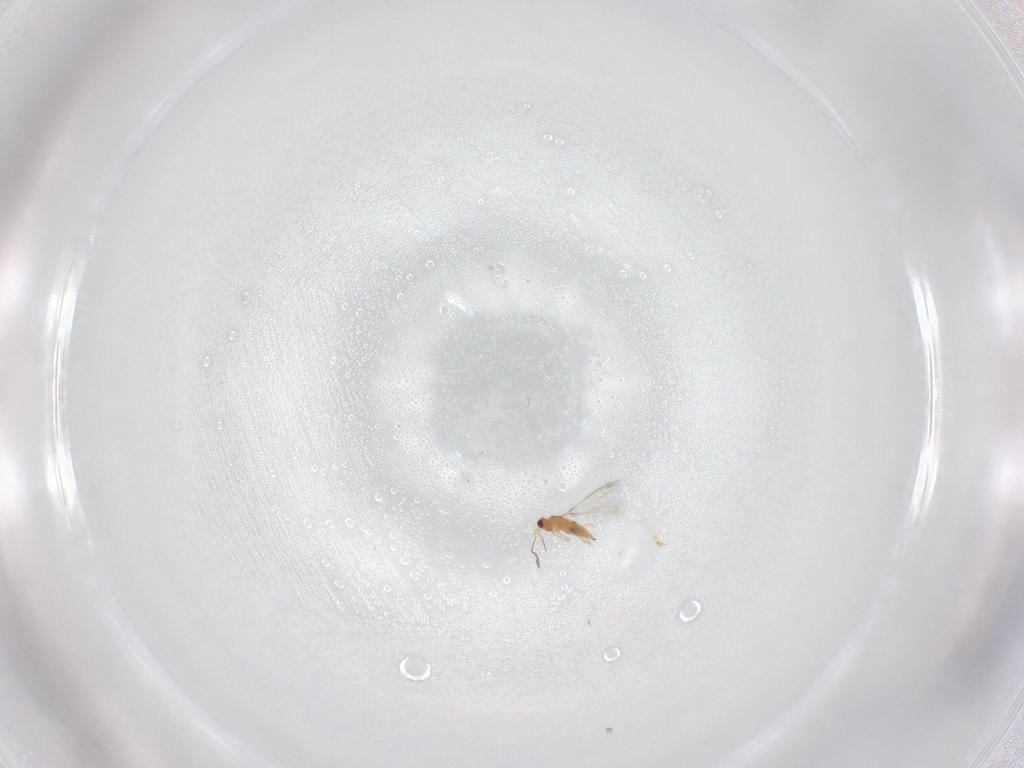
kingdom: Animalia
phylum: Arthropoda
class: Insecta
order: Hymenoptera
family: Mymaridae
